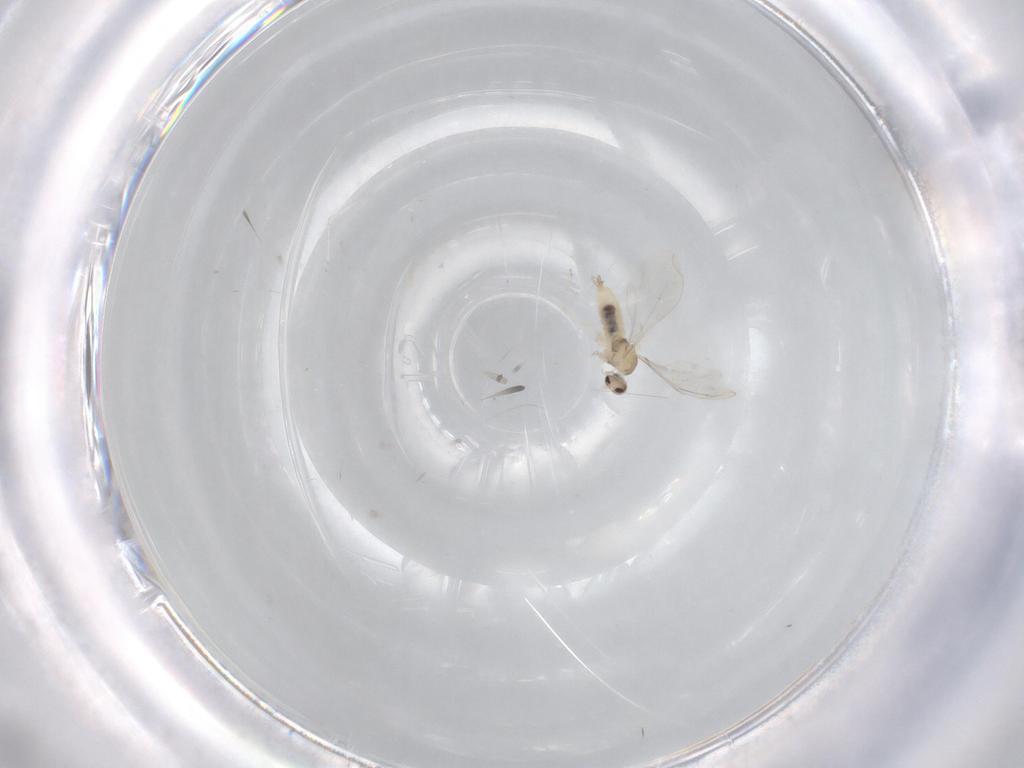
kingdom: Animalia
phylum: Arthropoda
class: Insecta
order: Diptera
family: Cecidomyiidae
